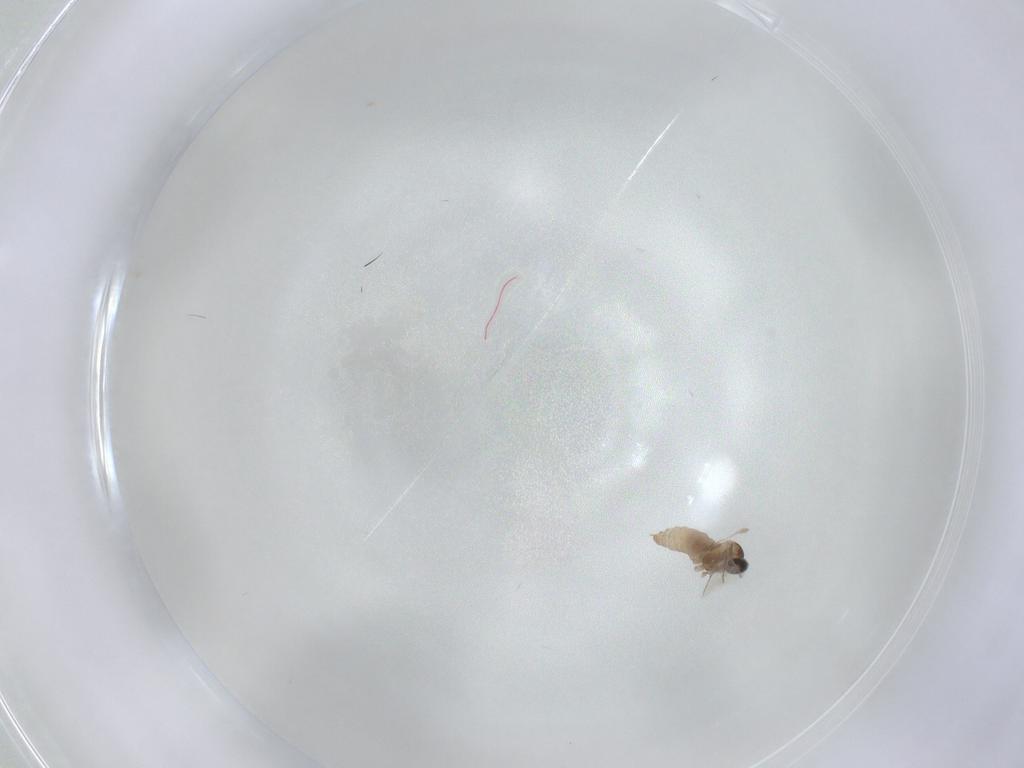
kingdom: Animalia
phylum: Arthropoda
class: Insecta
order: Diptera
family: Cecidomyiidae
